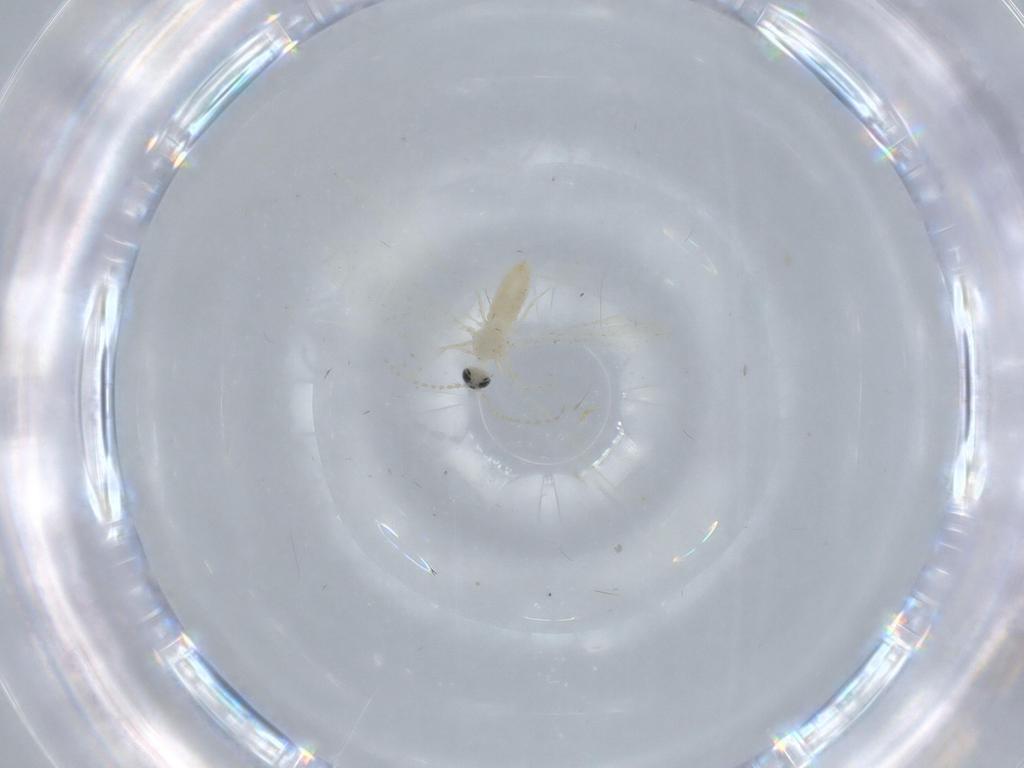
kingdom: Animalia
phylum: Arthropoda
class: Insecta
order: Diptera
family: Cecidomyiidae
